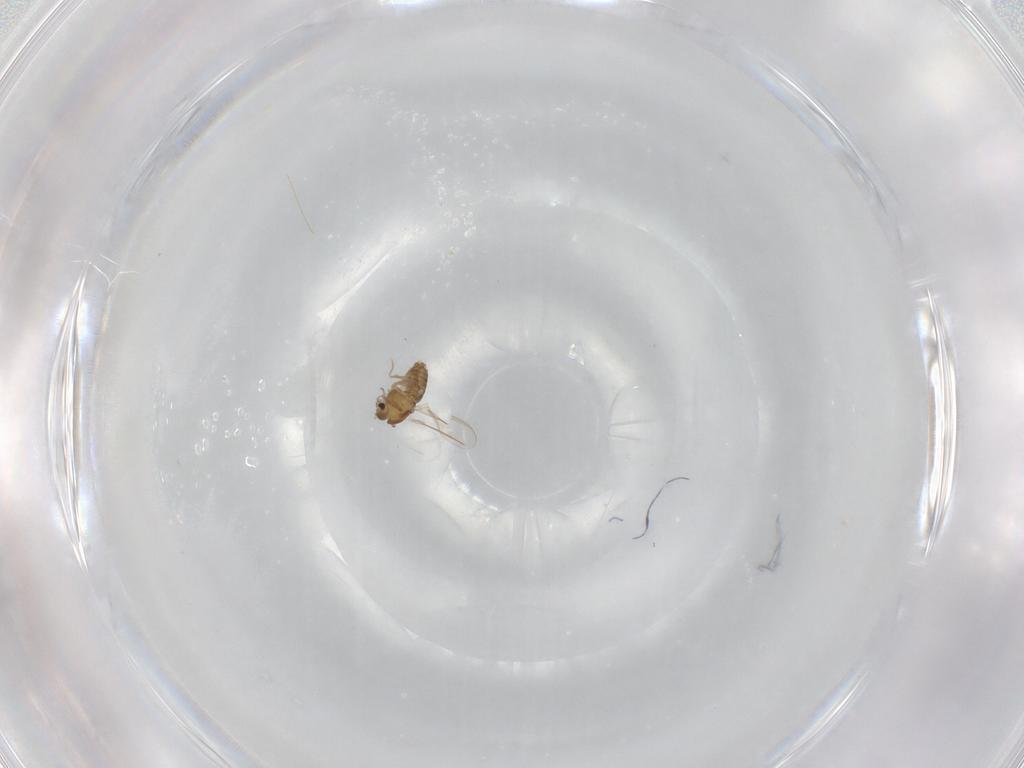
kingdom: Animalia
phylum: Arthropoda
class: Insecta
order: Diptera
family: Chironomidae
